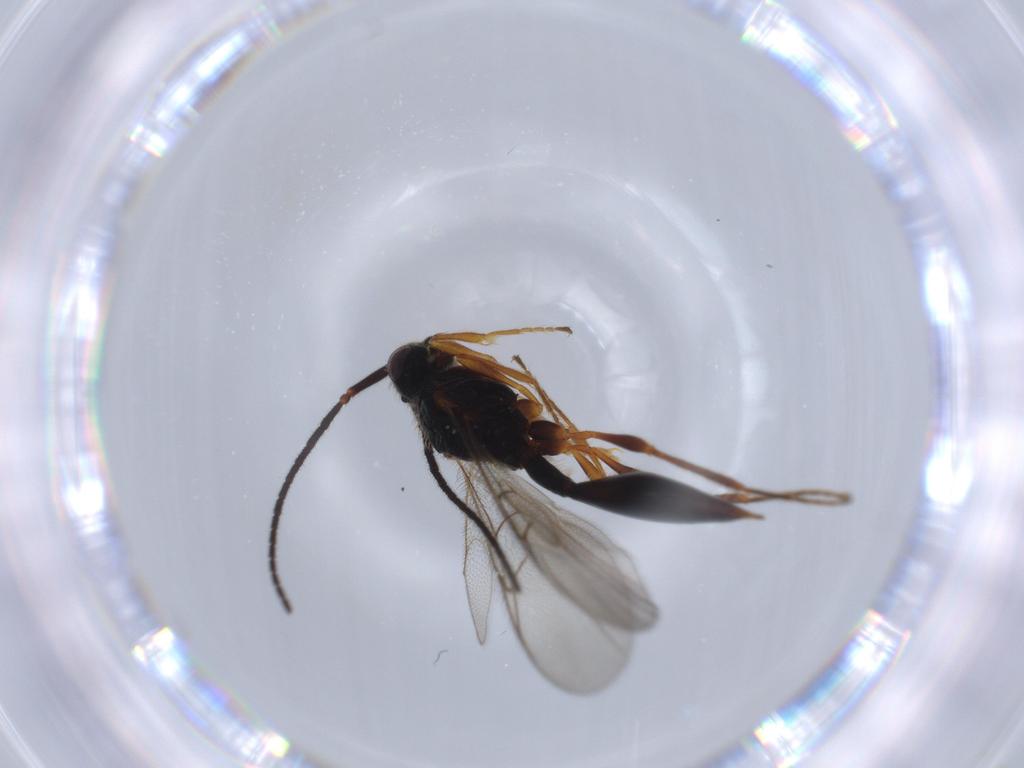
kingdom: Animalia
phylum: Arthropoda
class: Insecta
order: Hymenoptera
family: Diapriidae
